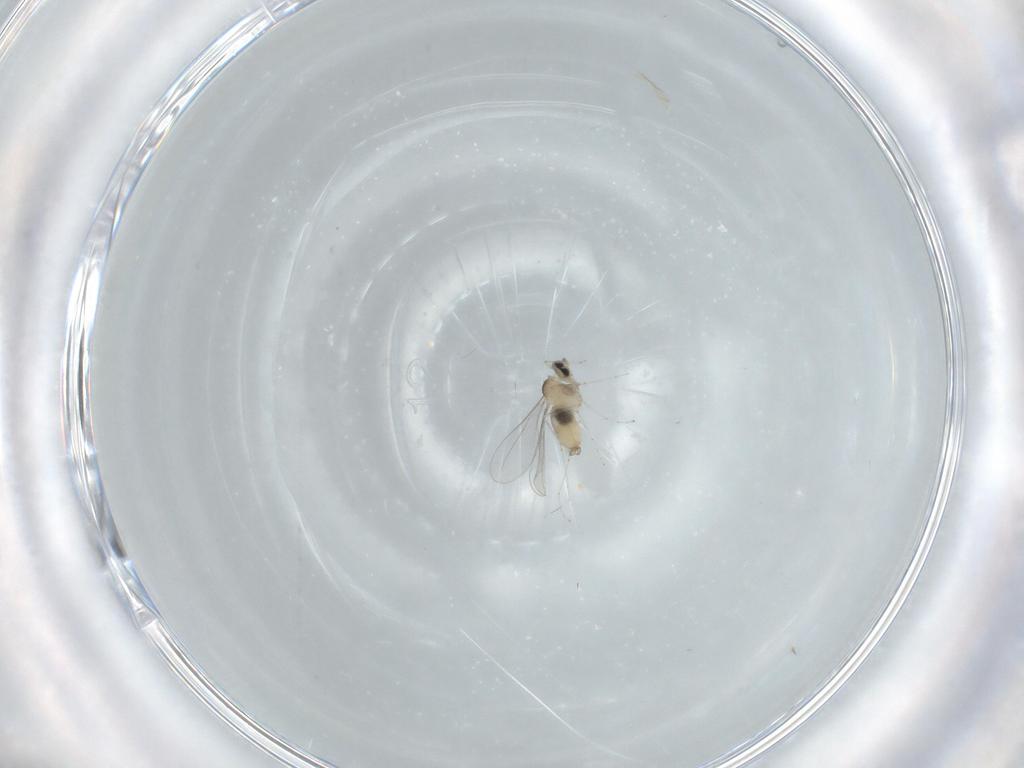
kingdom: Animalia
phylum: Arthropoda
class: Insecta
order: Diptera
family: Cecidomyiidae
